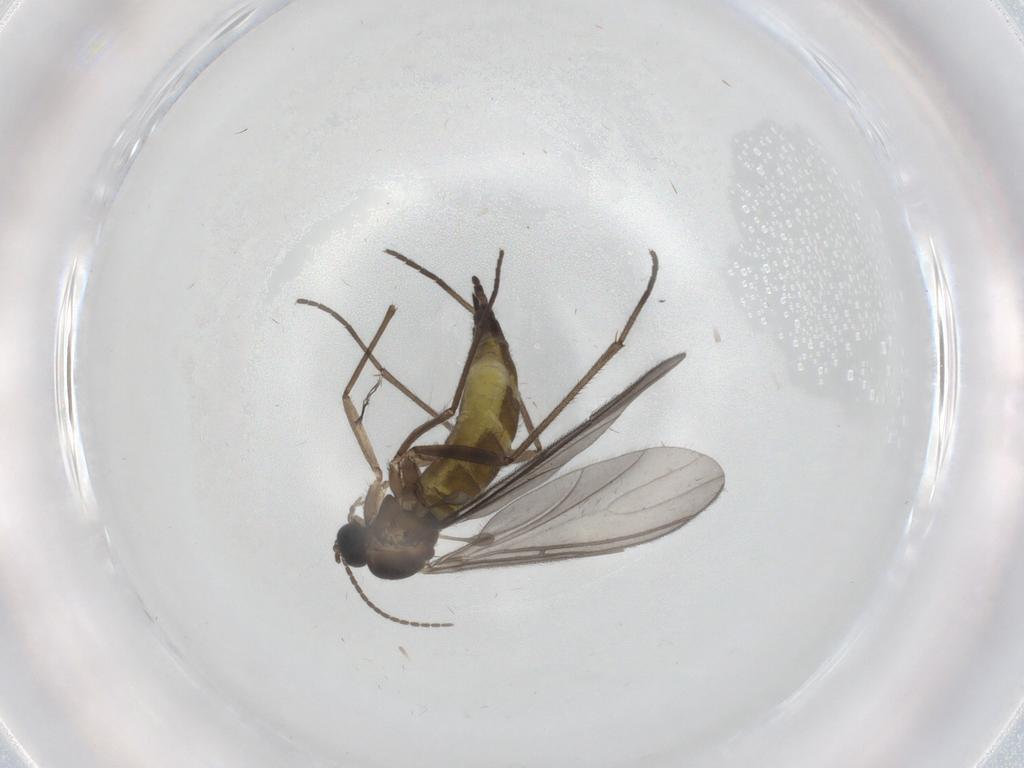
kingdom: Animalia
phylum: Arthropoda
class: Insecta
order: Diptera
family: Sciaridae
